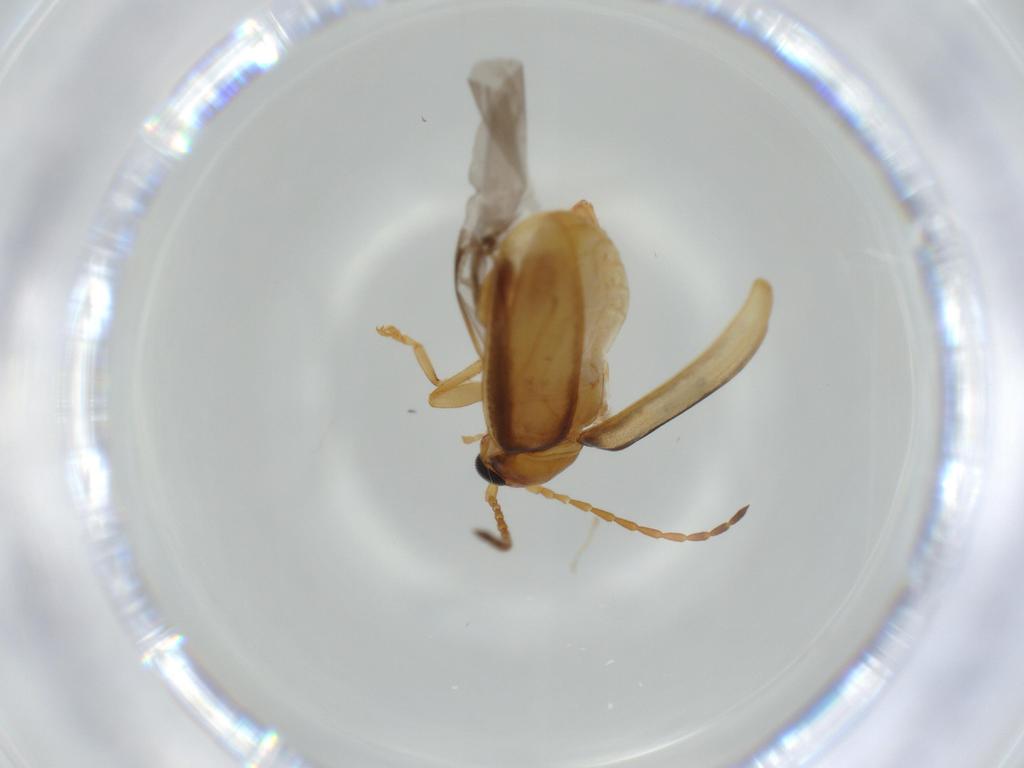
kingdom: Animalia
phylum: Arthropoda
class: Insecta
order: Coleoptera
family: Chrysomelidae
